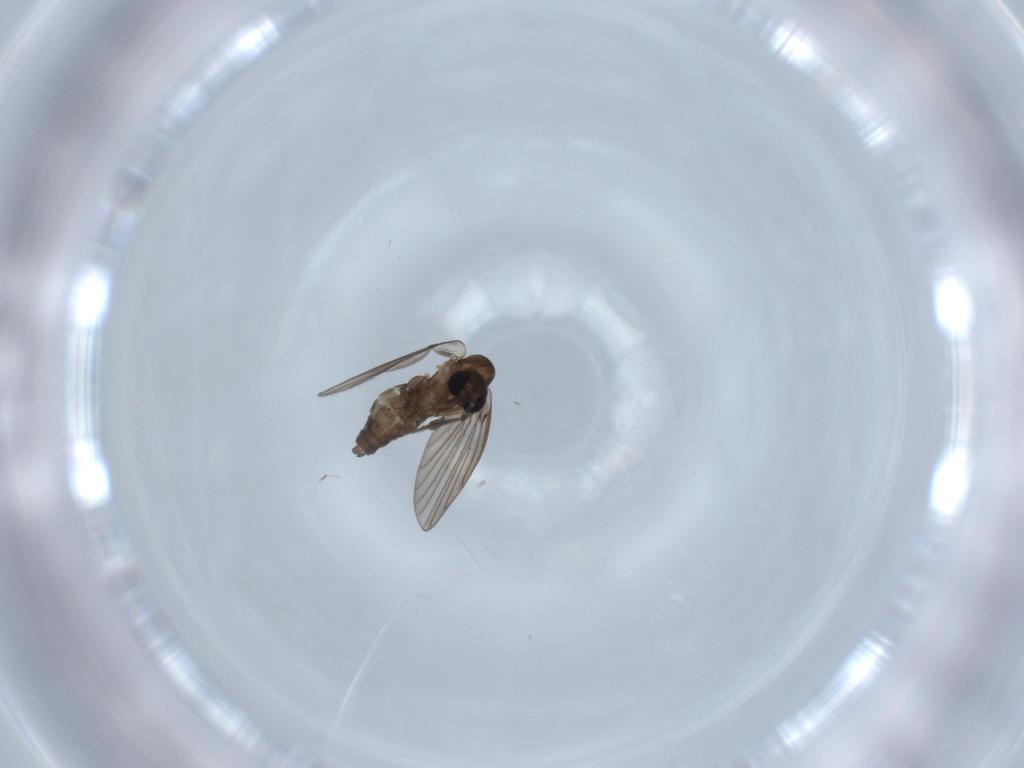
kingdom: Animalia
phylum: Arthropoda
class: Insecta
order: Diptera
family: Psychodidae
